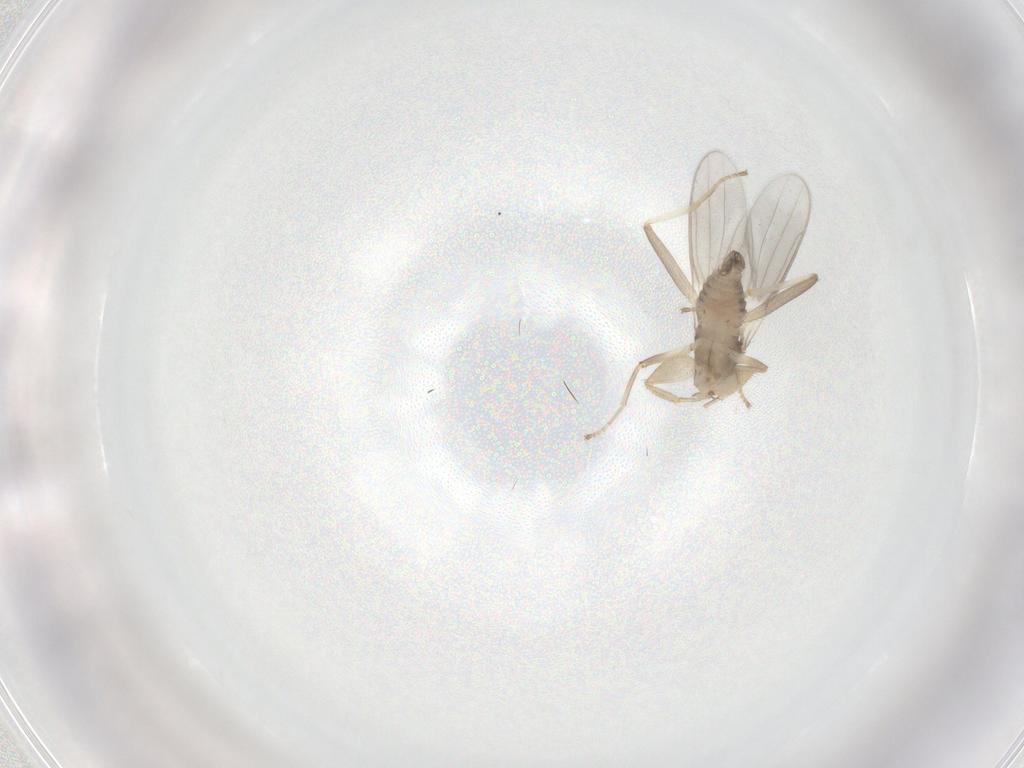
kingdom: Animalia
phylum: Arthropoda
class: Insecta
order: Diptera
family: Hybotidae
